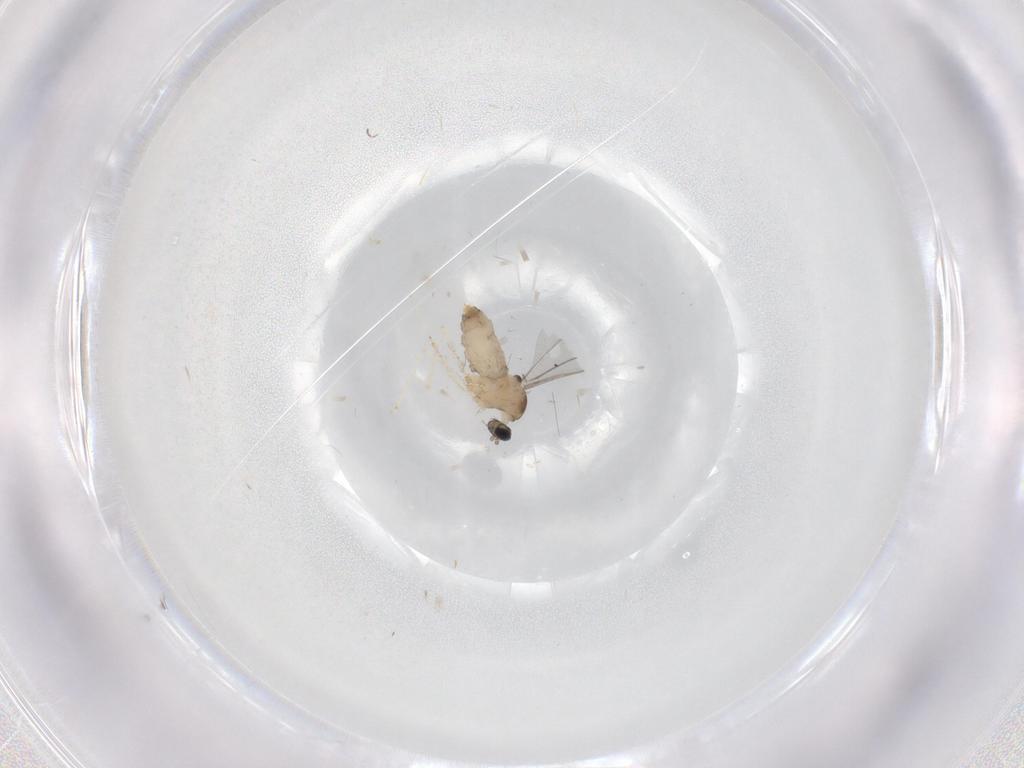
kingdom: Animalia
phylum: Arthropoda
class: Insecta
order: Diptera
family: Cecidomyiidae
